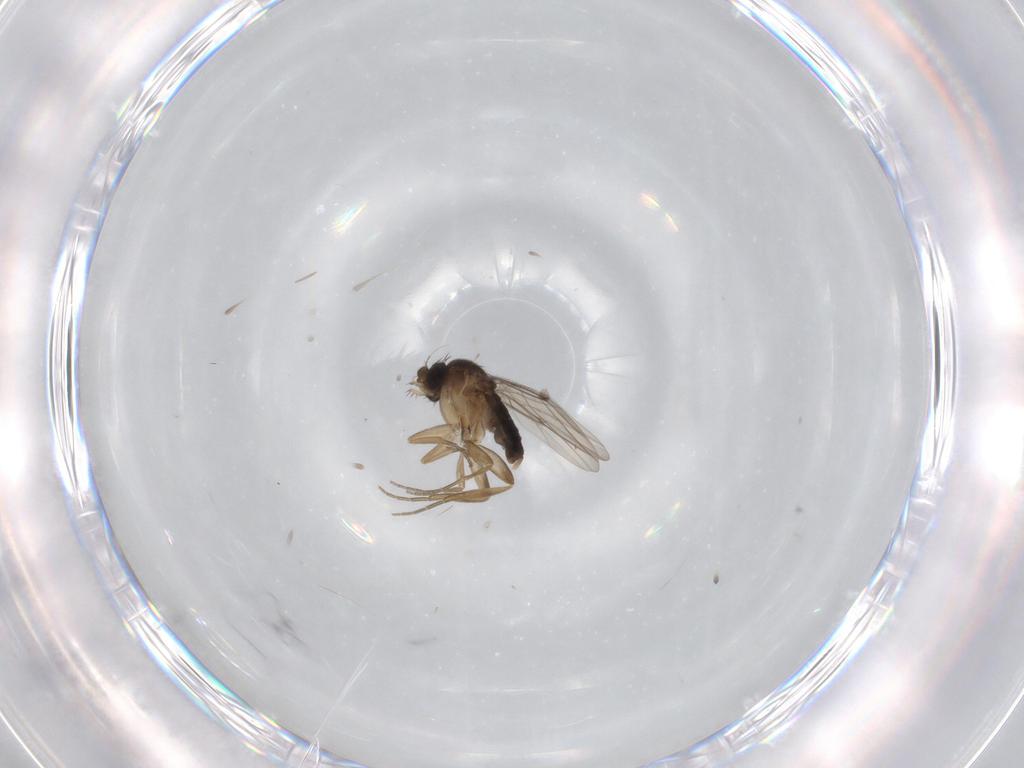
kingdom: Animalia
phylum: Arthropoda
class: Insecta
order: Diptera
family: Phoridae
